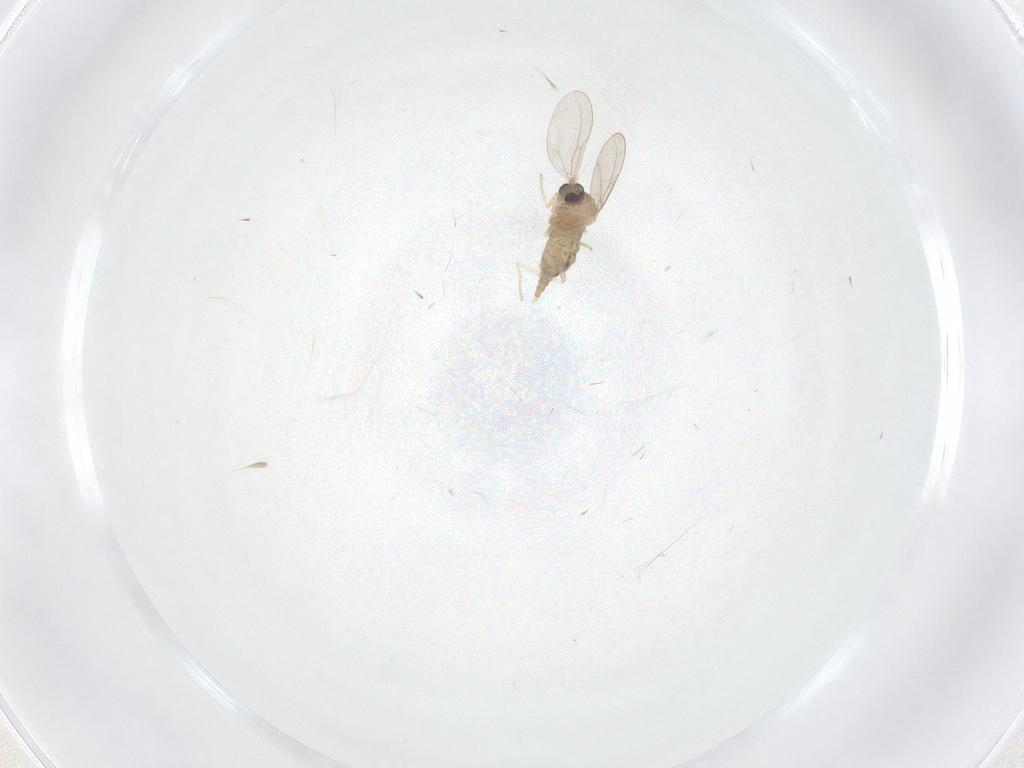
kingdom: Animalia
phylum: Arthropoda
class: Insecta
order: Diptera
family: Cecidomyiidae
